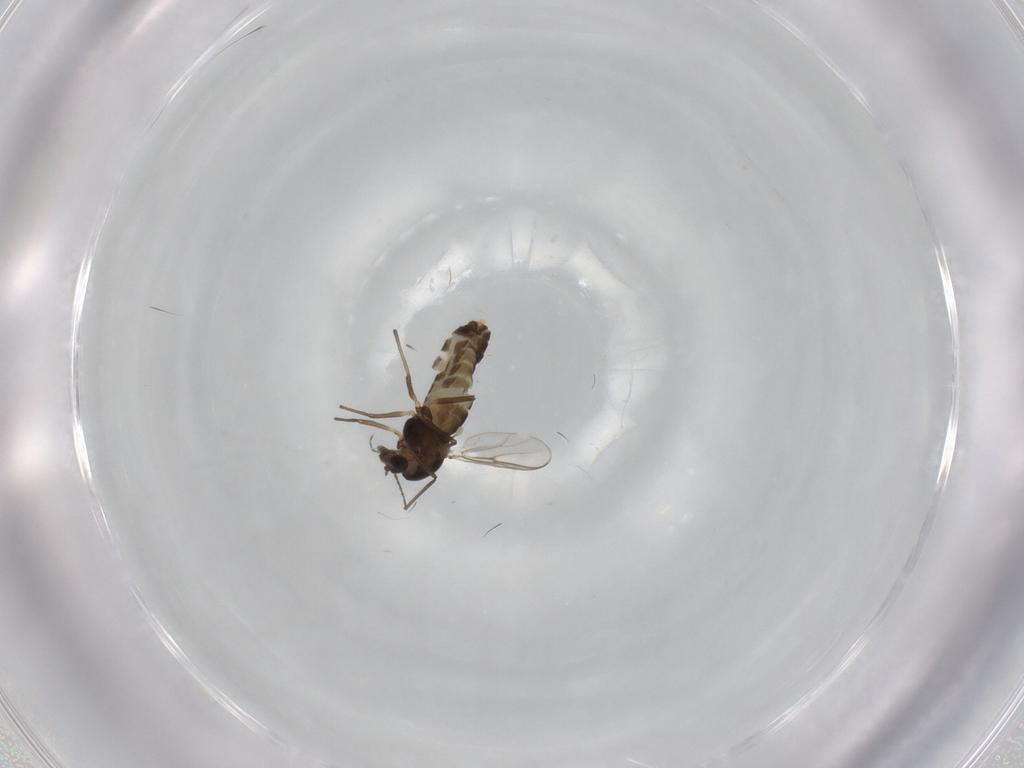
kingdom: Animalia
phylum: Arthropoda
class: Insecta
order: Diptera
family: Chironomidae
